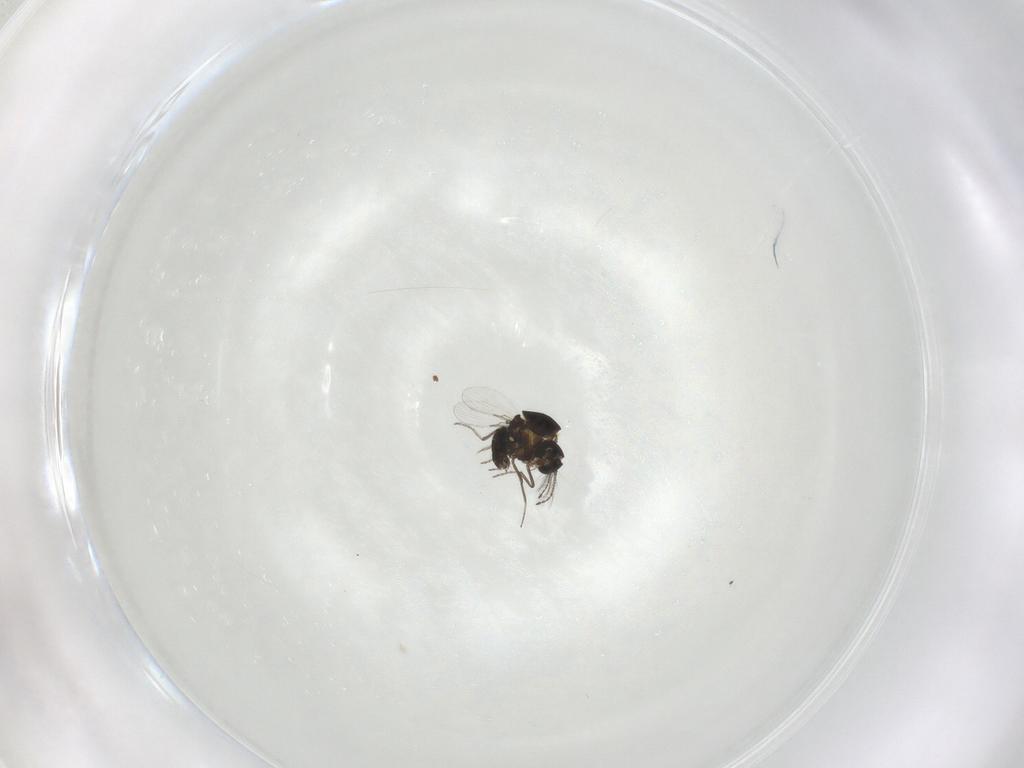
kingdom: Animalia
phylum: Arthropoda
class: Insecta
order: Diptera
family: Ceratopogonidae
